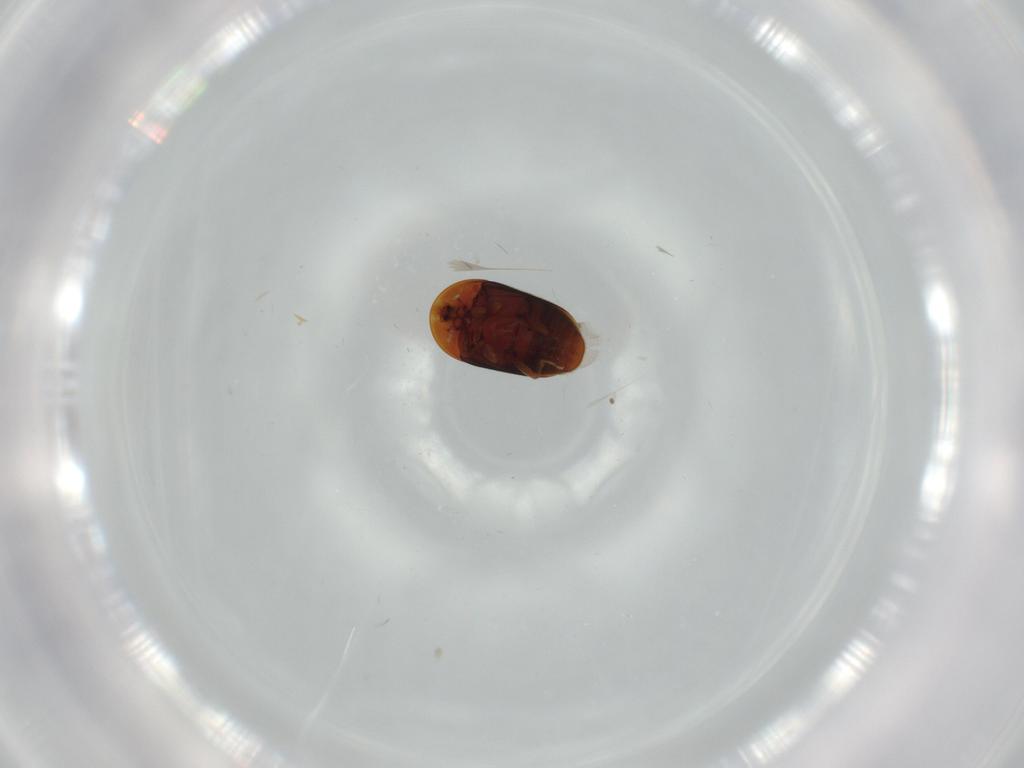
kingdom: Animalia
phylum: Arthropoda
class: Insecta
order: Coleoptera
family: Corylophidae
